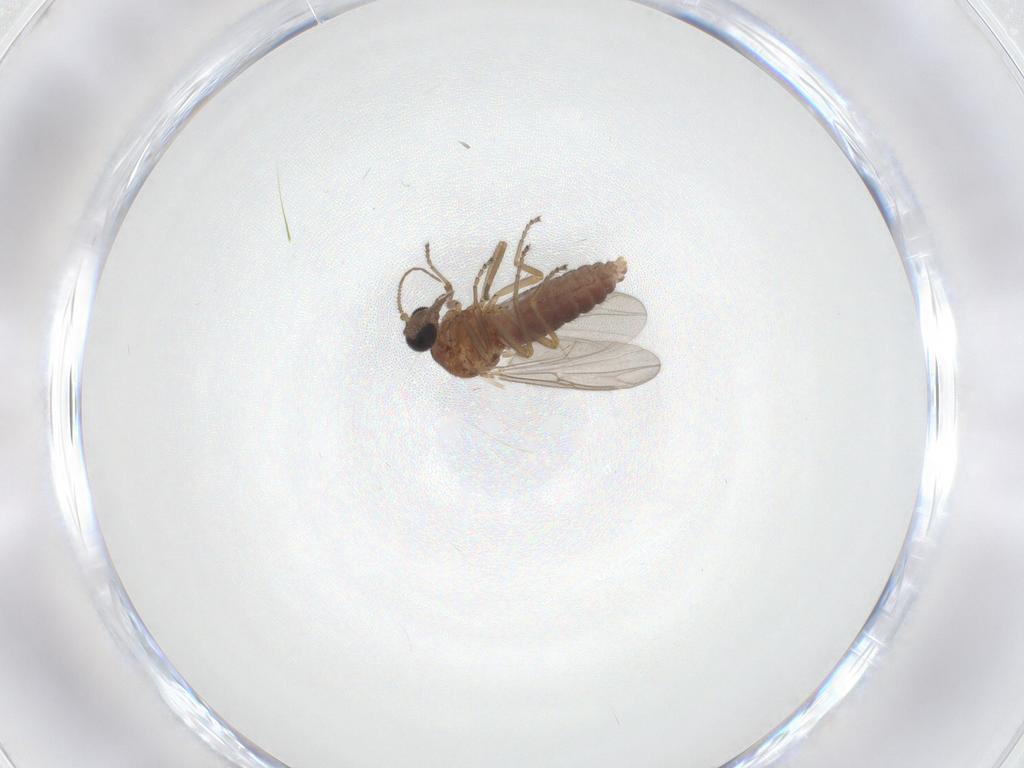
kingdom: Animalia
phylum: Arthropoda
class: Insecta
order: Diptera
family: Ceratopogonidae
